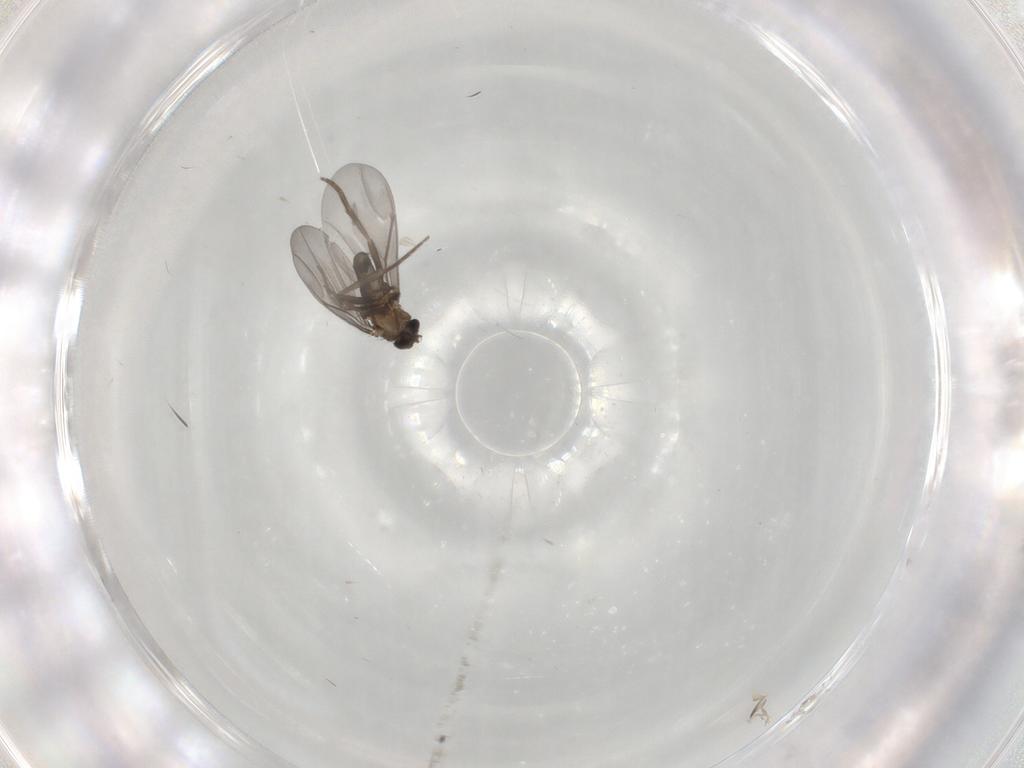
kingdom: Animalia
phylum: Arthropoda
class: Insecta
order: Diptera
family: Phoridae
